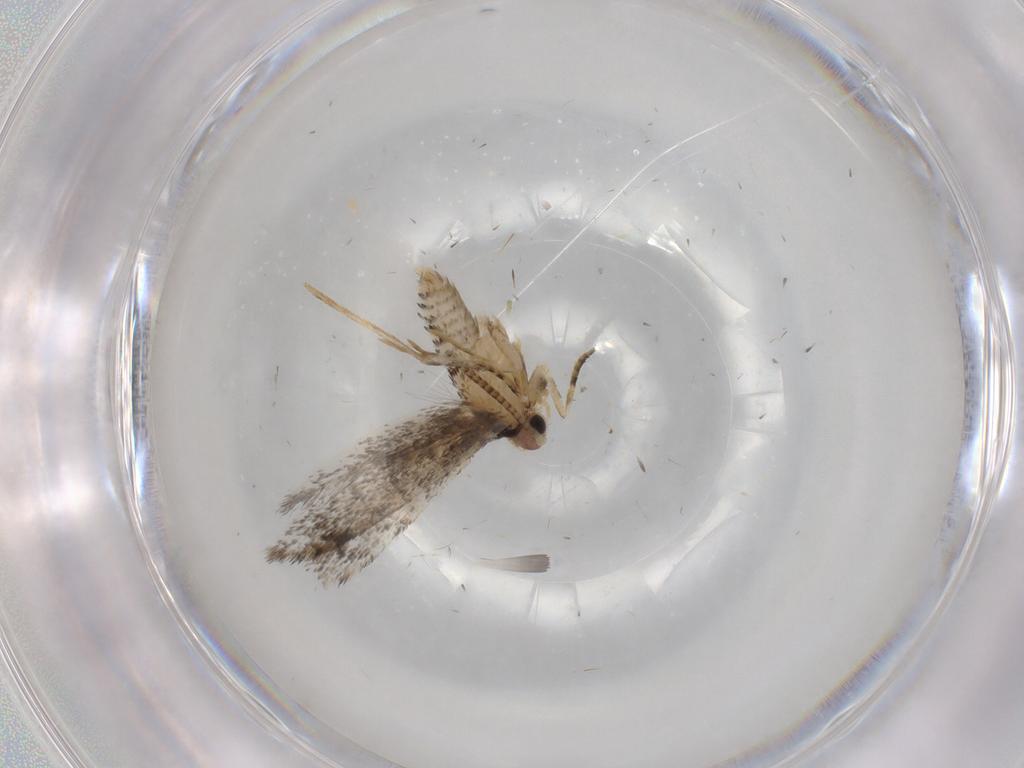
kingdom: Animalia
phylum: Arthropoda
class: Insecta
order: Lepidoptera
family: Tineidae
